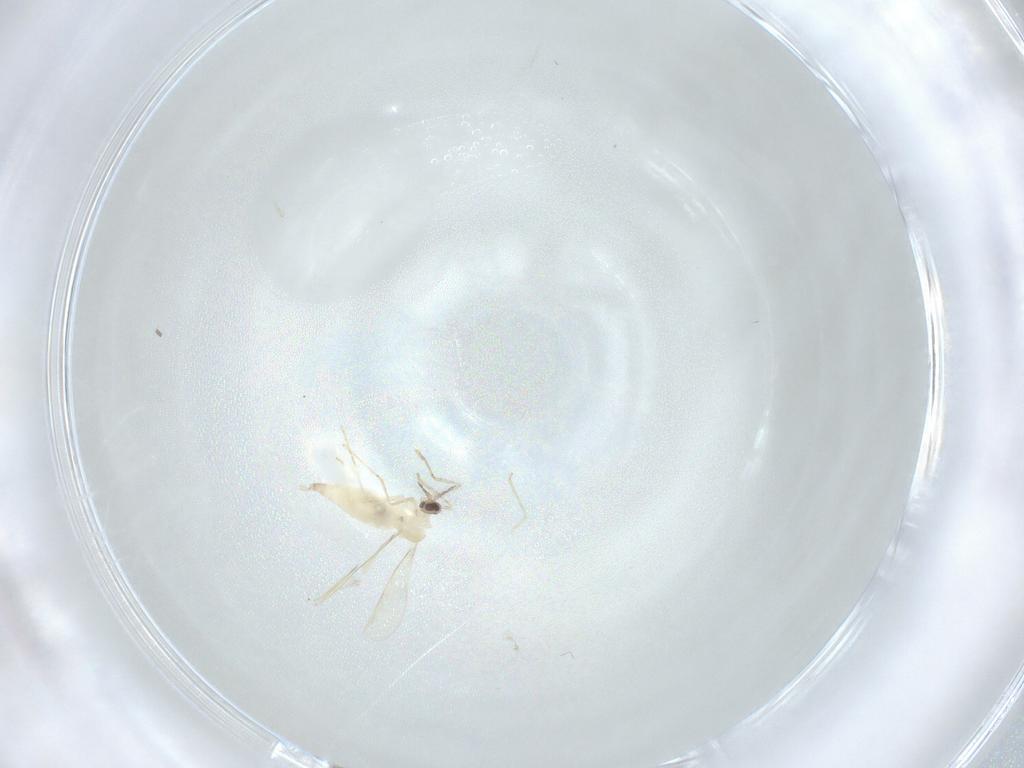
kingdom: Animalia
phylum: Arthropoda
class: Insecta
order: Diptera
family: Cecidomyiidae
